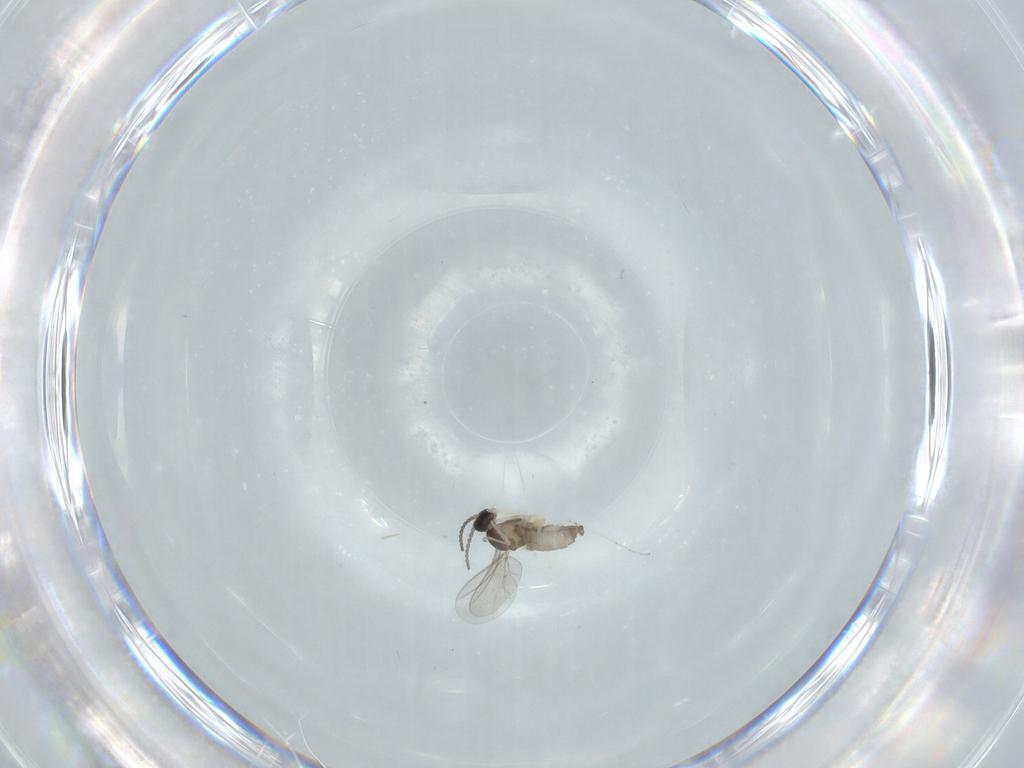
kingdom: Animalia
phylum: Arthropoda
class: Insecta
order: Diptera
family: Cecidomyiidae
